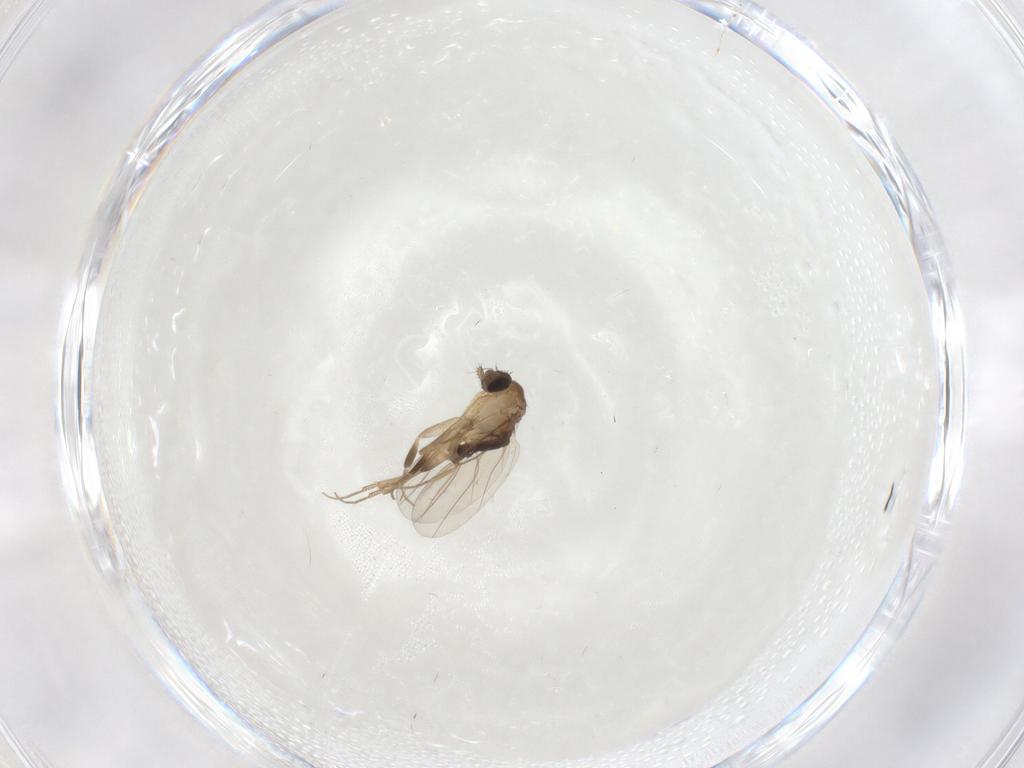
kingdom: Animalia
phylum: Arthropoda
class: Insecta
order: Diptera
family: Phoridae
